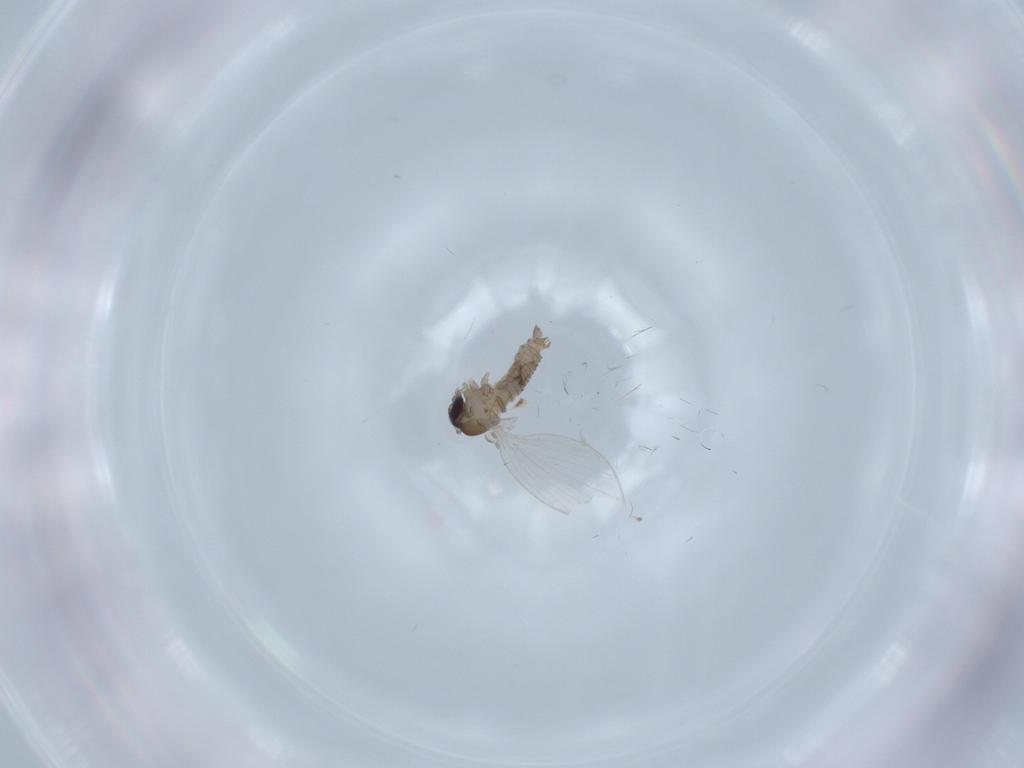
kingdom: Animalia
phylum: Arthropoda
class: Insecta
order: Diptera
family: Psychodidae
